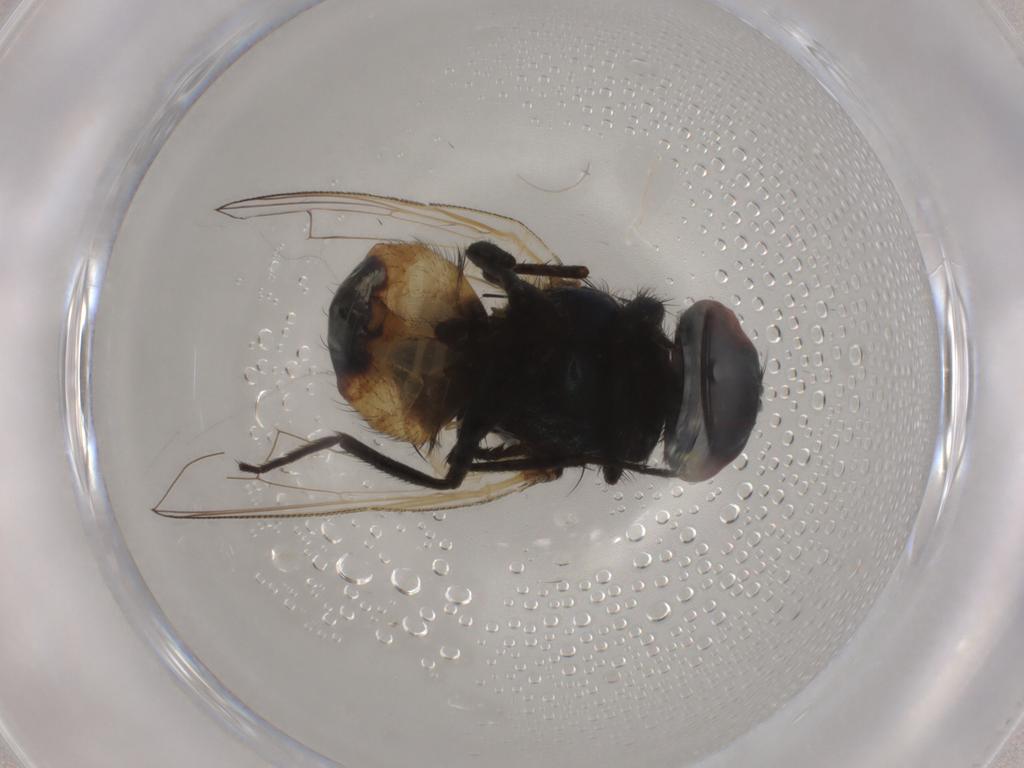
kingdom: Animalia
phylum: Arthropoda
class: Insecta
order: Diptera
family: Muscidae
